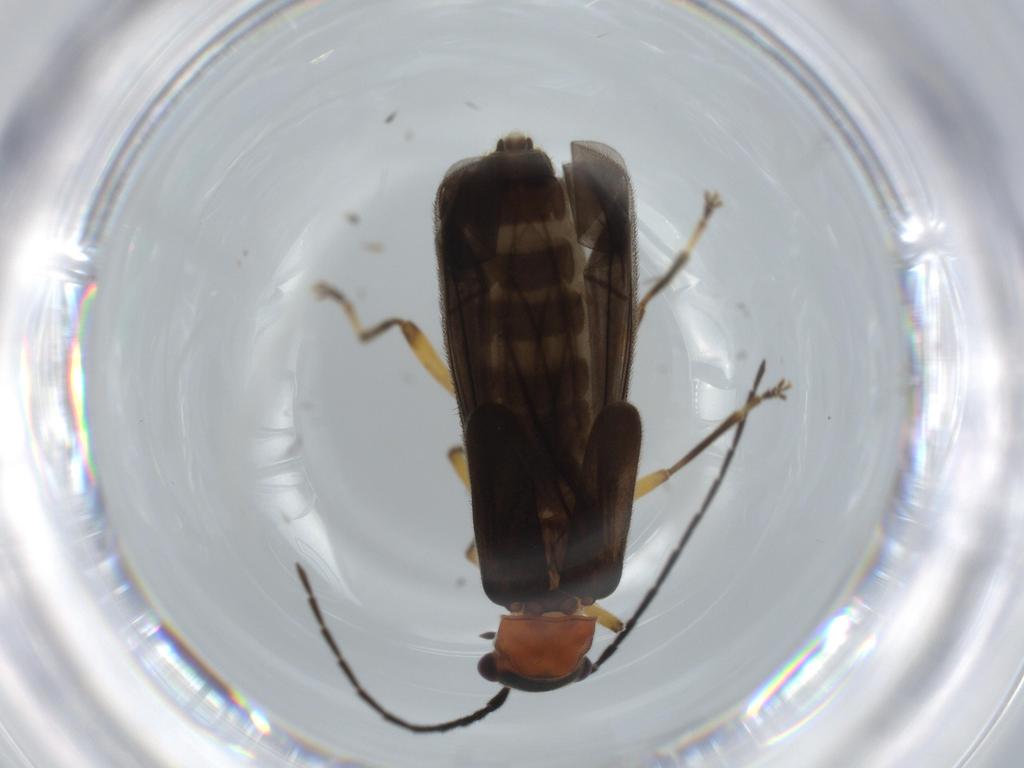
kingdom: Animalia
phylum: Arthropoda
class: Insecta
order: Coleoptera
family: Cantharidae
